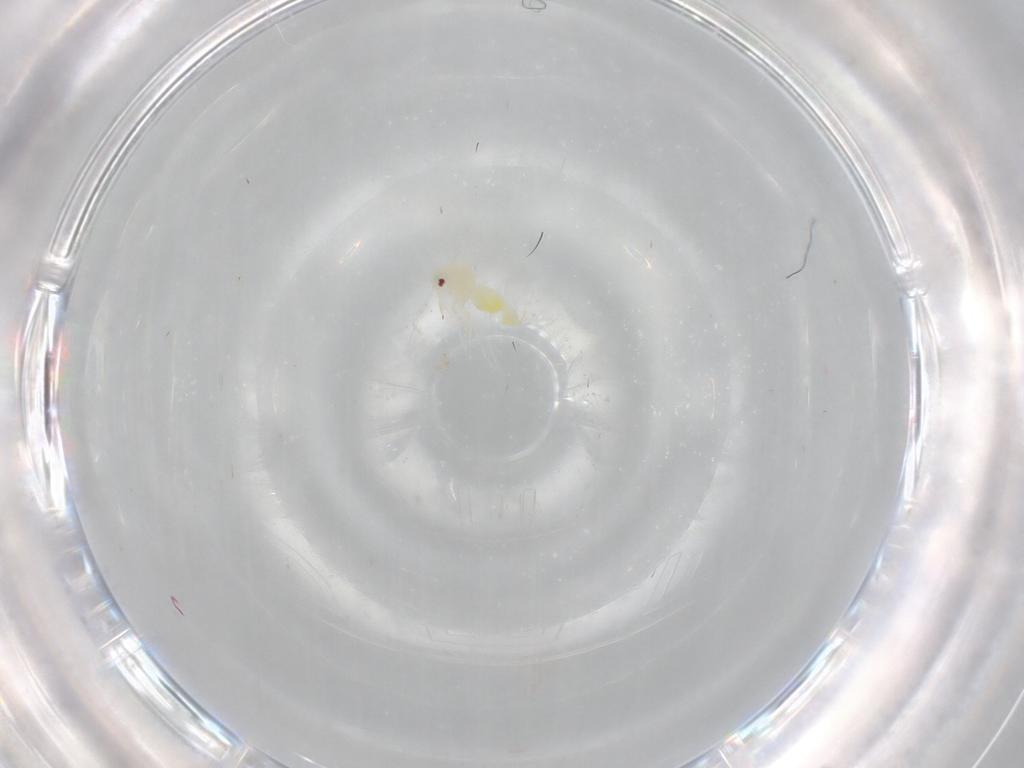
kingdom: Animalia
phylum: Arthropoda
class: Insecta
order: Hemiptera
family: Aleyrodidae
